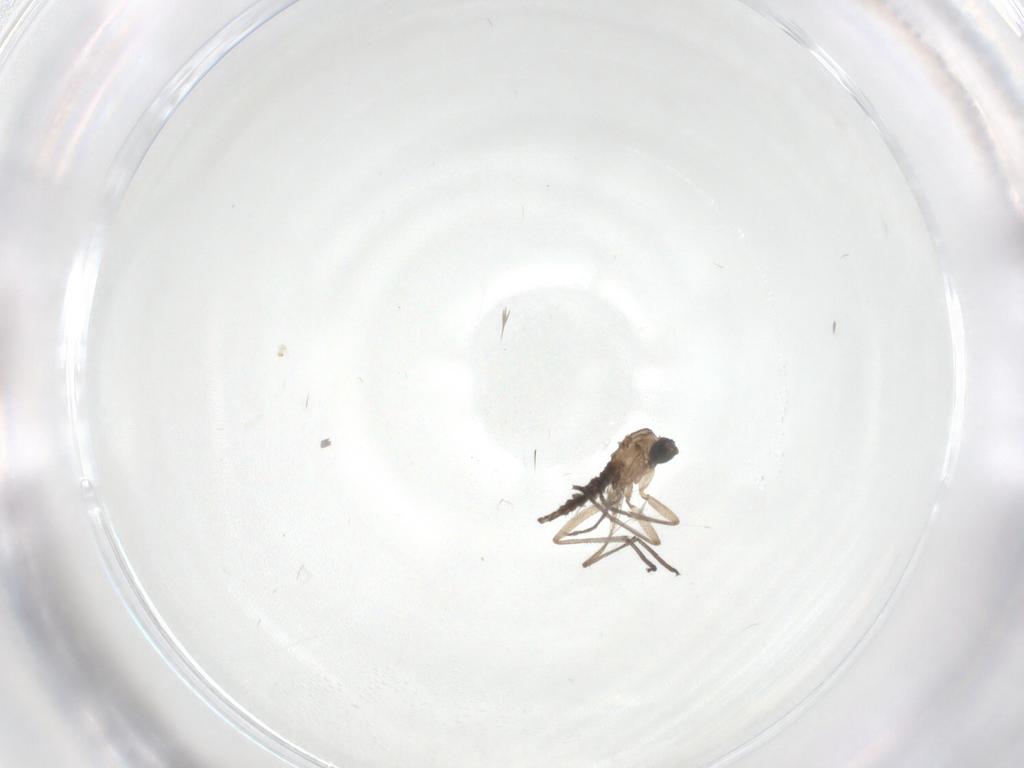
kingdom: Animalia
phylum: Arthropoda
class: Insecta
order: Diptera
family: Sciaridae
